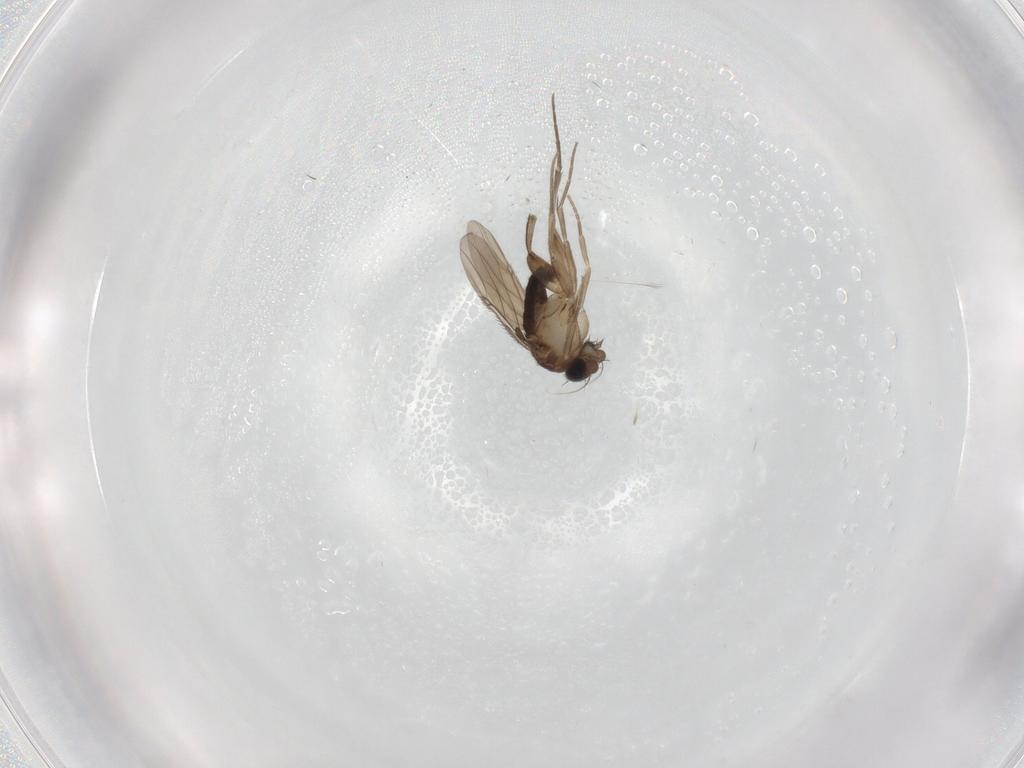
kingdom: Animalia
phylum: Arthropoda
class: Insecta
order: Diptera
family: Phoridae
